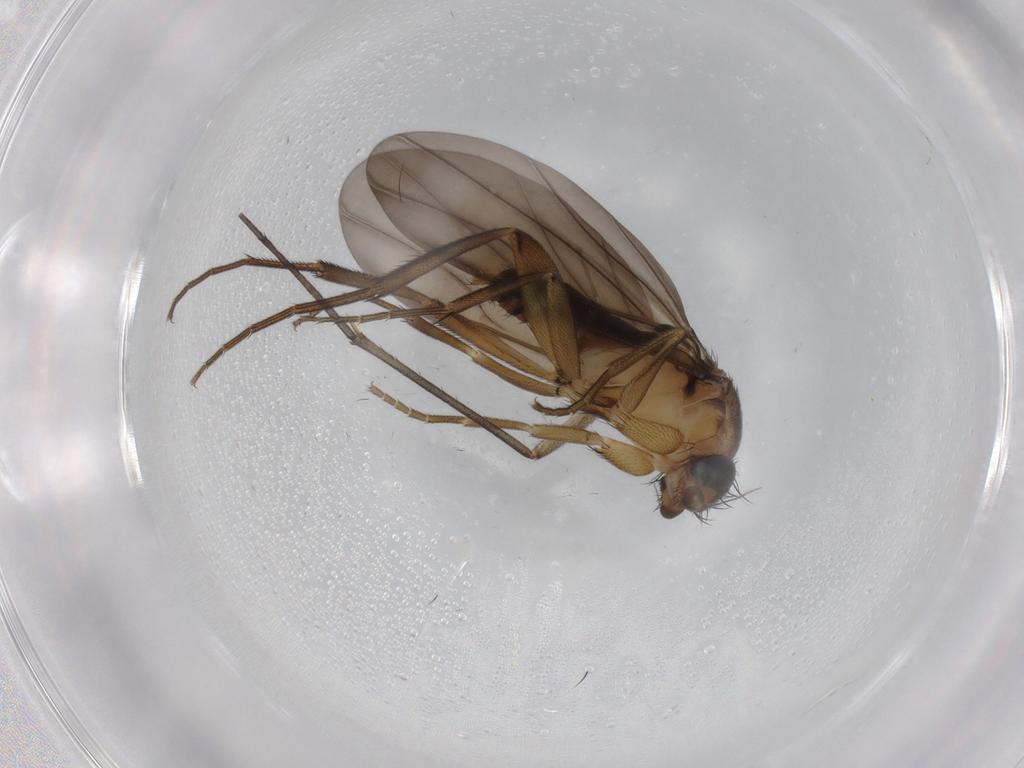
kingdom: Animalia
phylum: Arthropoda
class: Insecta
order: Diptera
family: Phoridae
